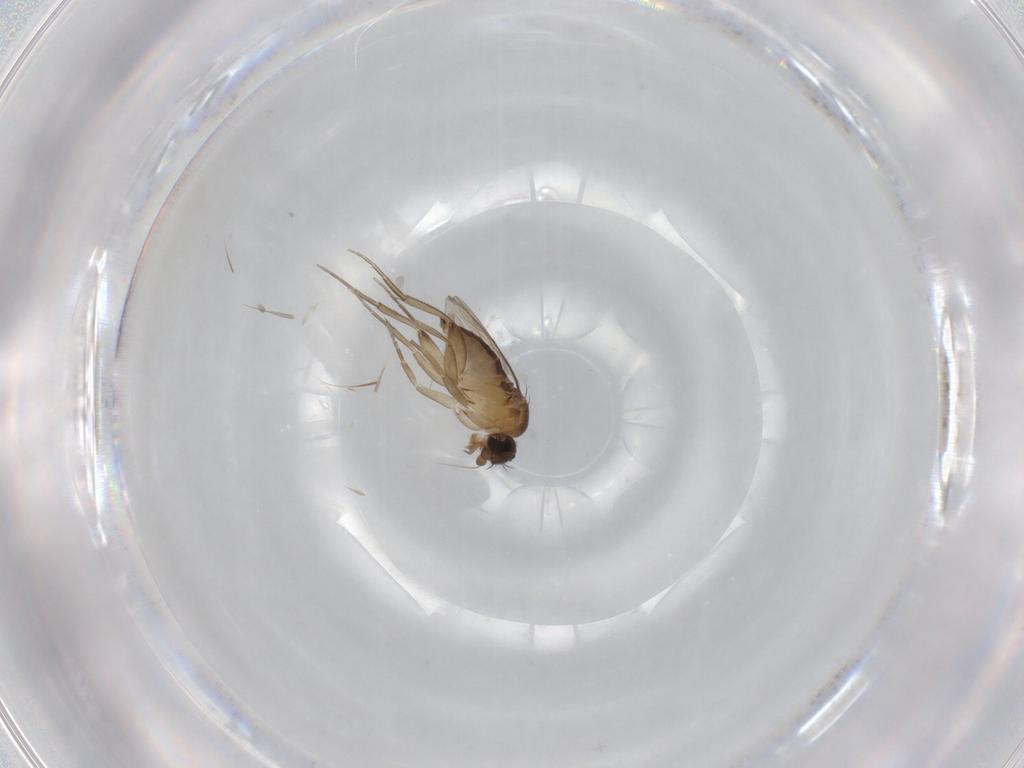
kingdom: Animalia
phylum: Arthropoda
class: Insecta
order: Diptera
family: Phoridae
